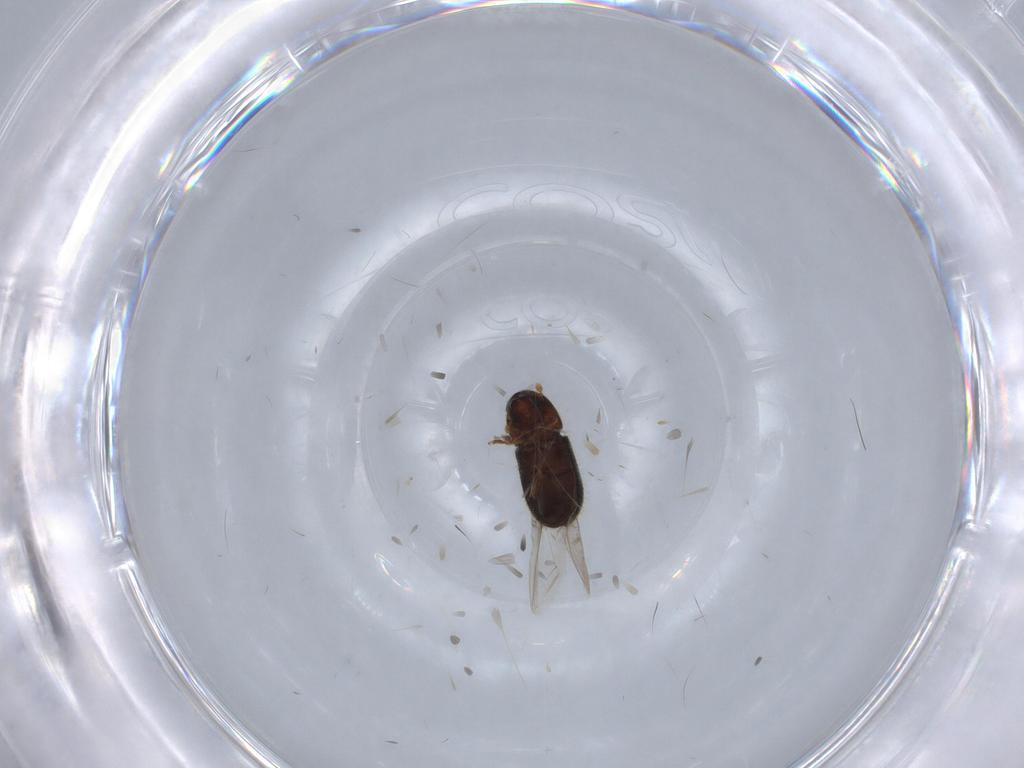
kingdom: Animalia
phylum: Arthropoda
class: Insecta
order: Coleoptera
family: Curculionidae
